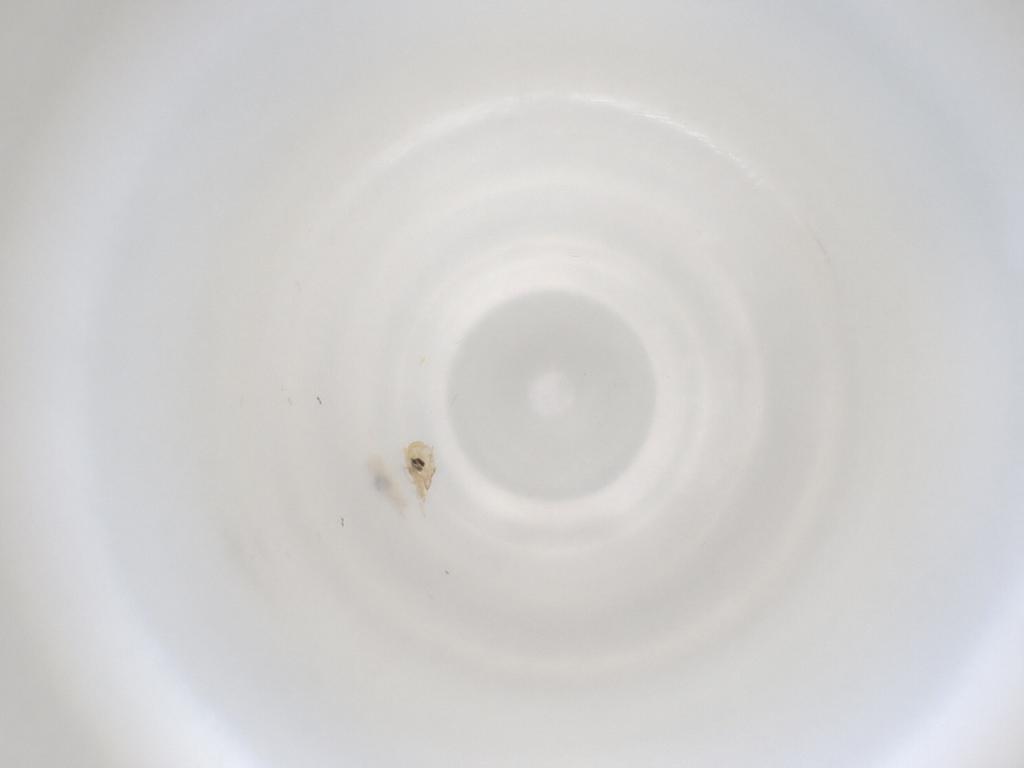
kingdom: Animalia
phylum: Arthropoda
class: Insecta
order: Diptera
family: Cecidomyiidae
